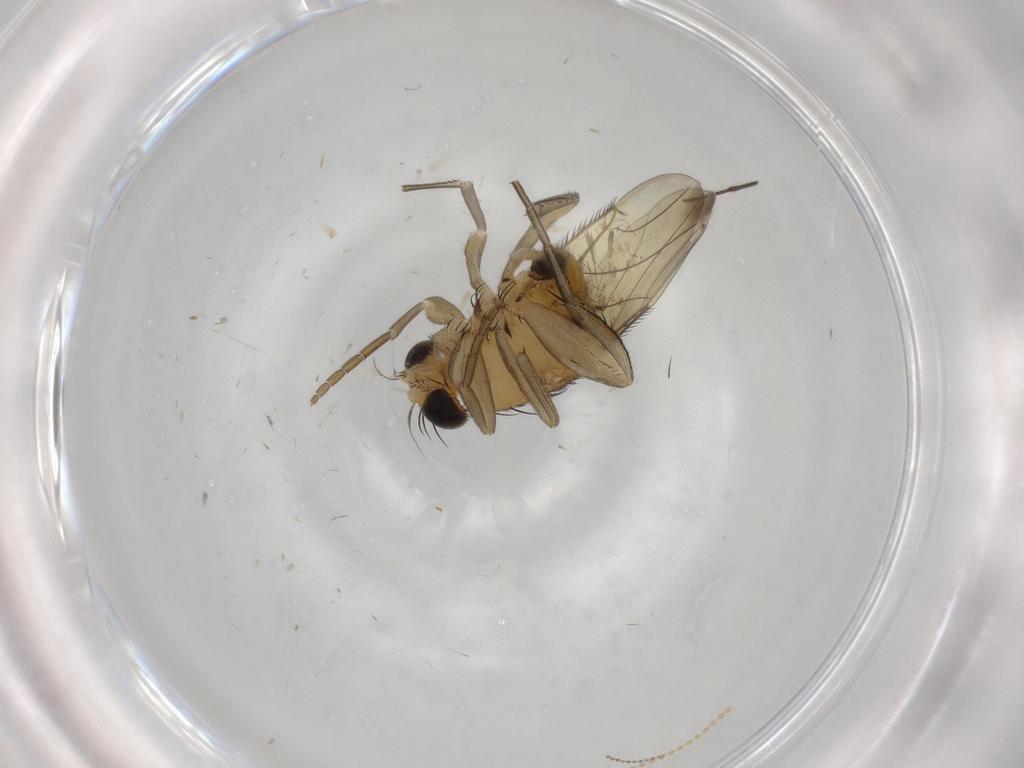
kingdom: Animalia
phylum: Arthropoda
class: Insecta
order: Diptera
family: Phoridae
